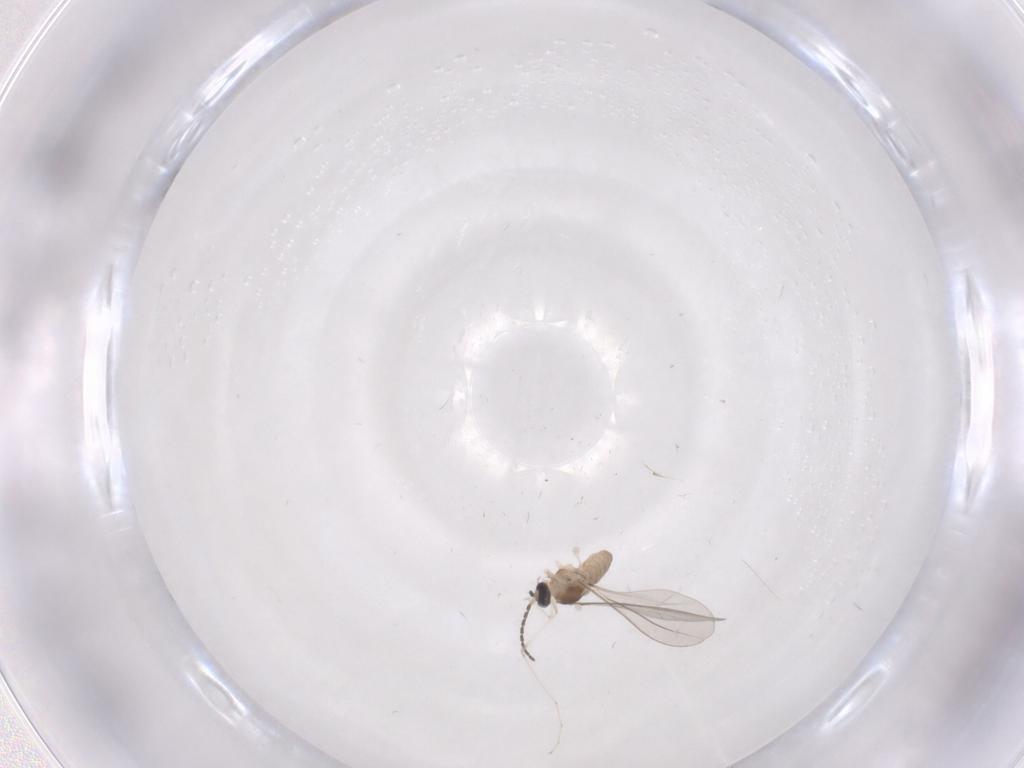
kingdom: Animalia
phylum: Arthropoda
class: Insecta
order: Diptera
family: Cecidomyiidae
